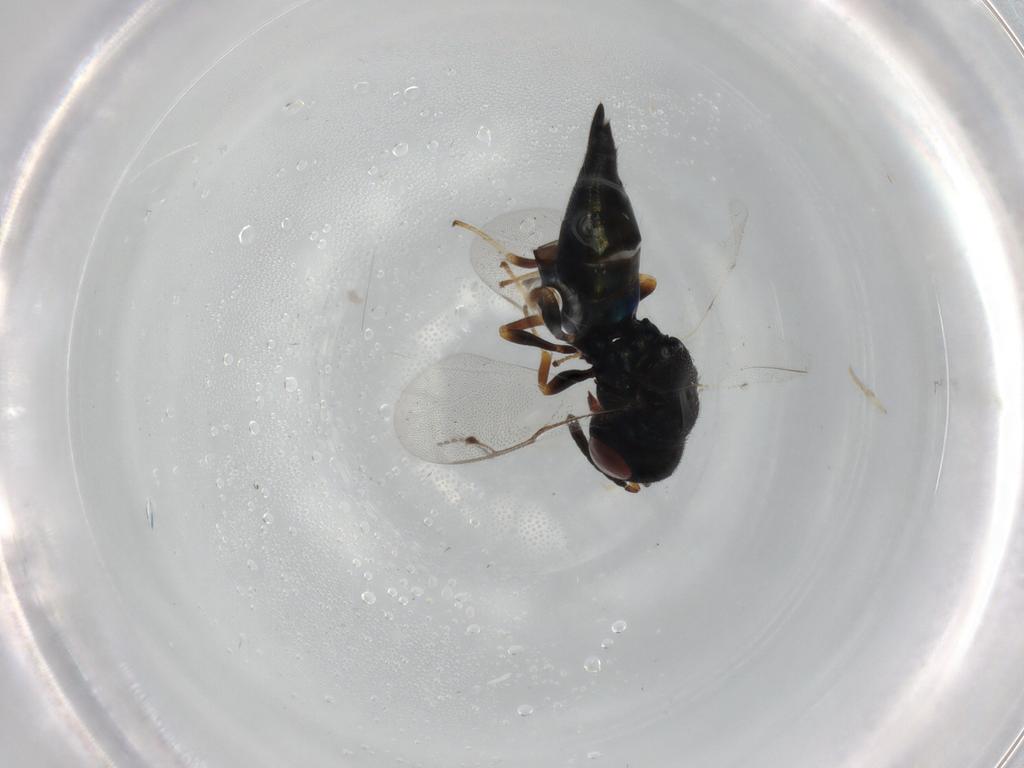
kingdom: Animalia
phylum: Arthropoda
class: Insecta
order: Hymenoptera
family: Pteromalidae
